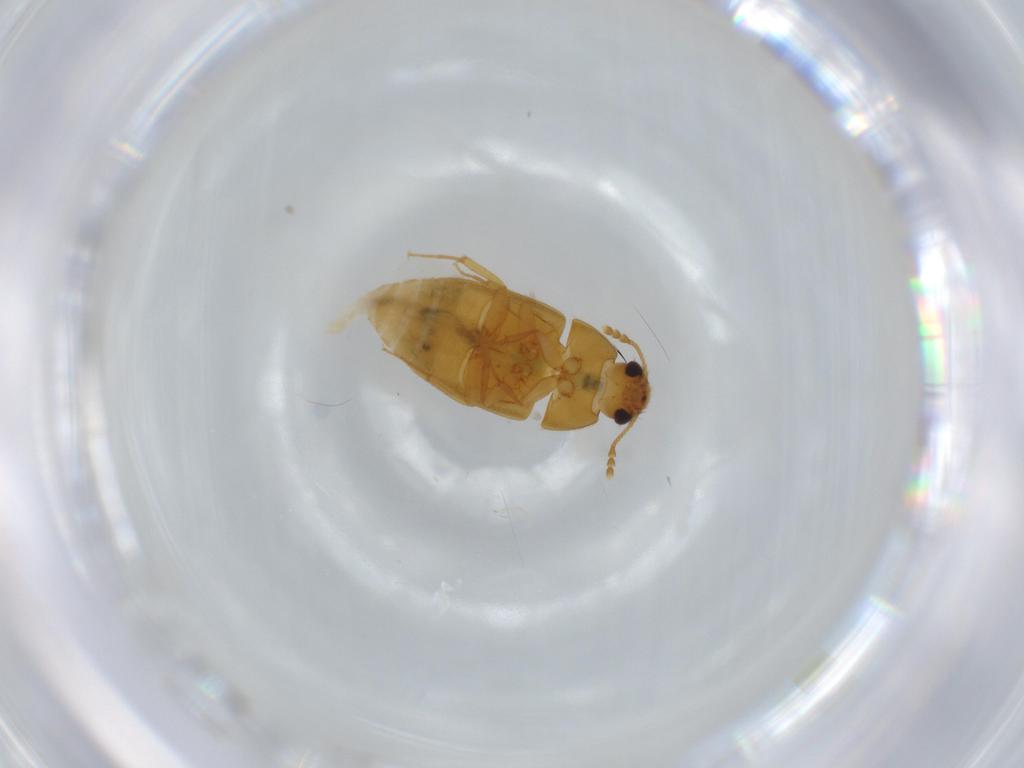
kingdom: Animalia
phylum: Arthropoda
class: Insecta
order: Coleoptera
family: Mycetophagidae
